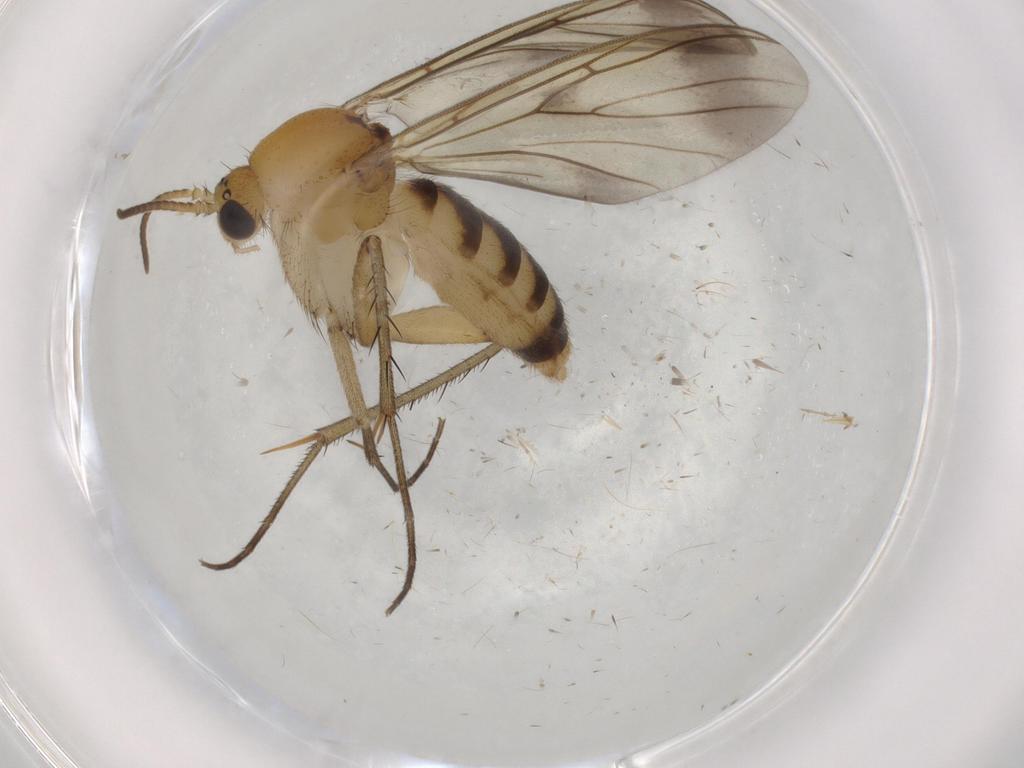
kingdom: Animalia
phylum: Arthropoda
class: Insecta
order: Diptera
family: Mycetophilidae
